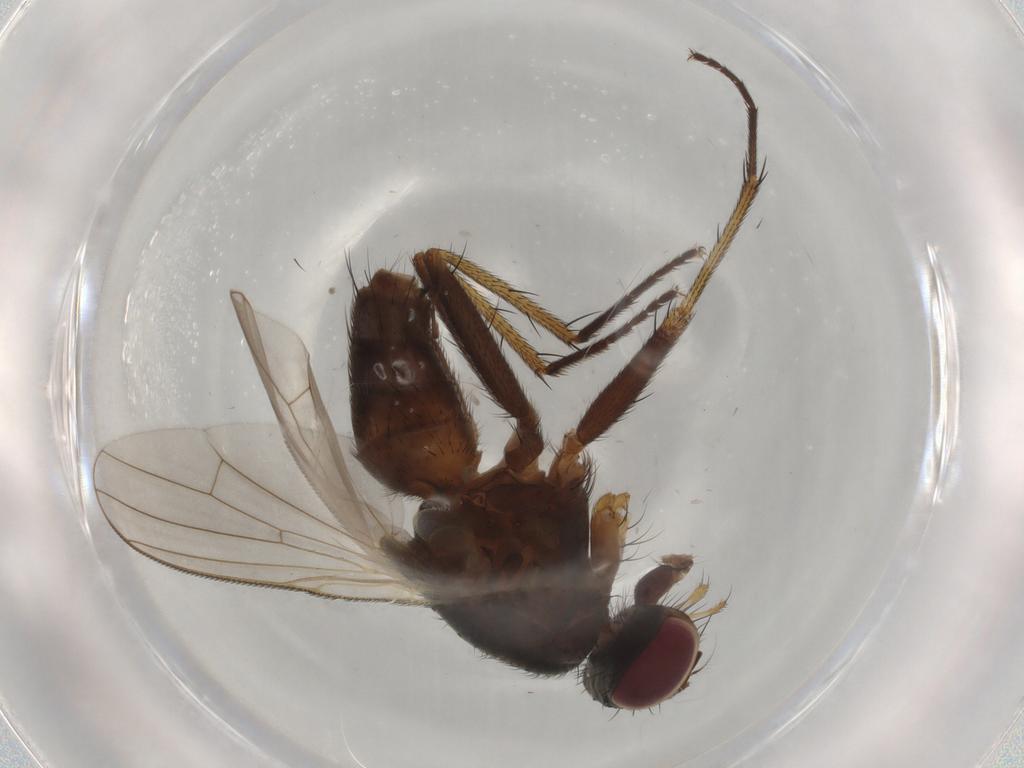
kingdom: Animalia
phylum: Arthropoda
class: Insecta
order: Diptera
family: Muscidae
